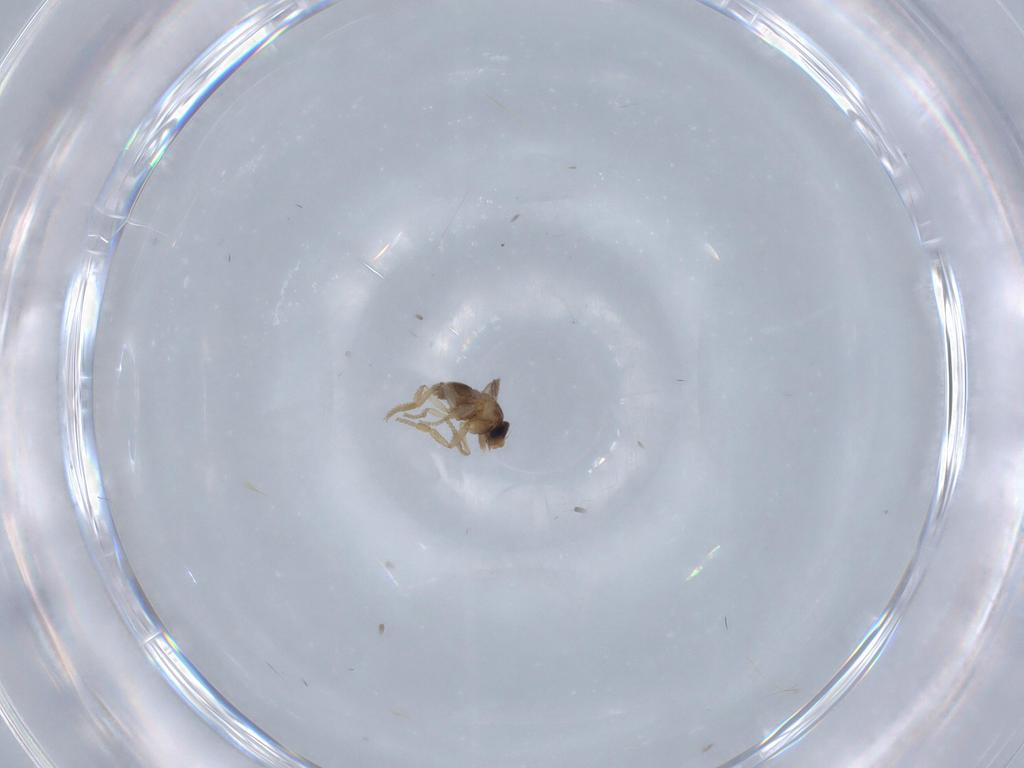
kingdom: Animalia
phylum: Arthropoda
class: Insecta
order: Diptera
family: Phoridae
